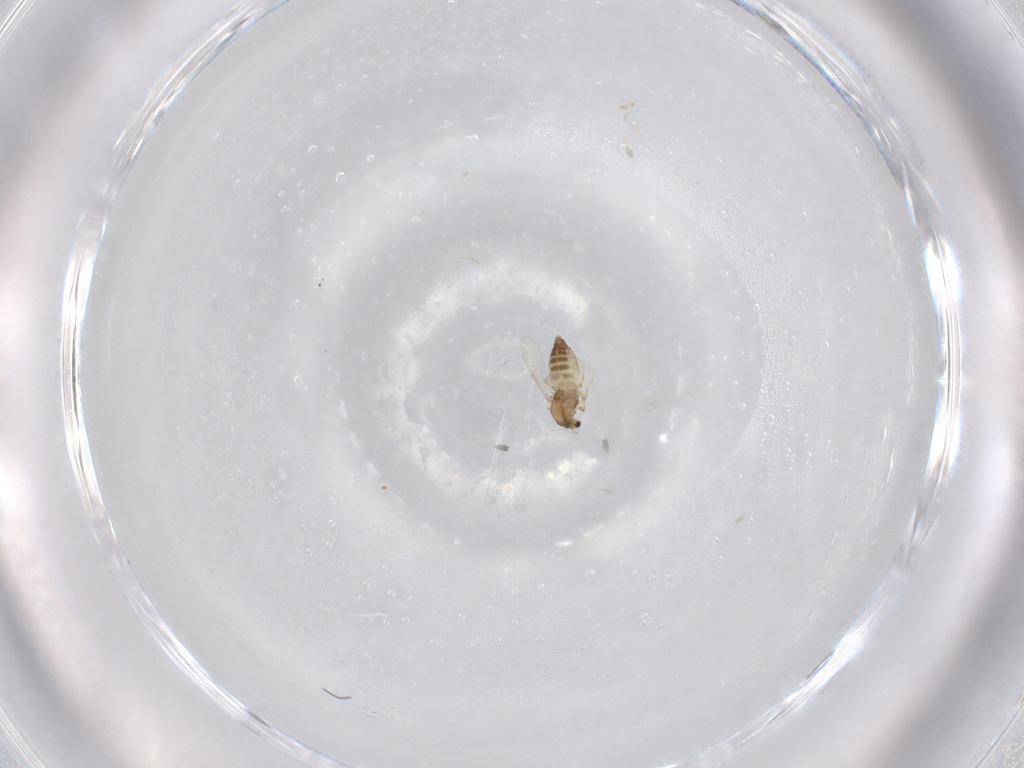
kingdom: Animalia
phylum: Arthropoda
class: Insecta
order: Diptera
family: Chironomidae
